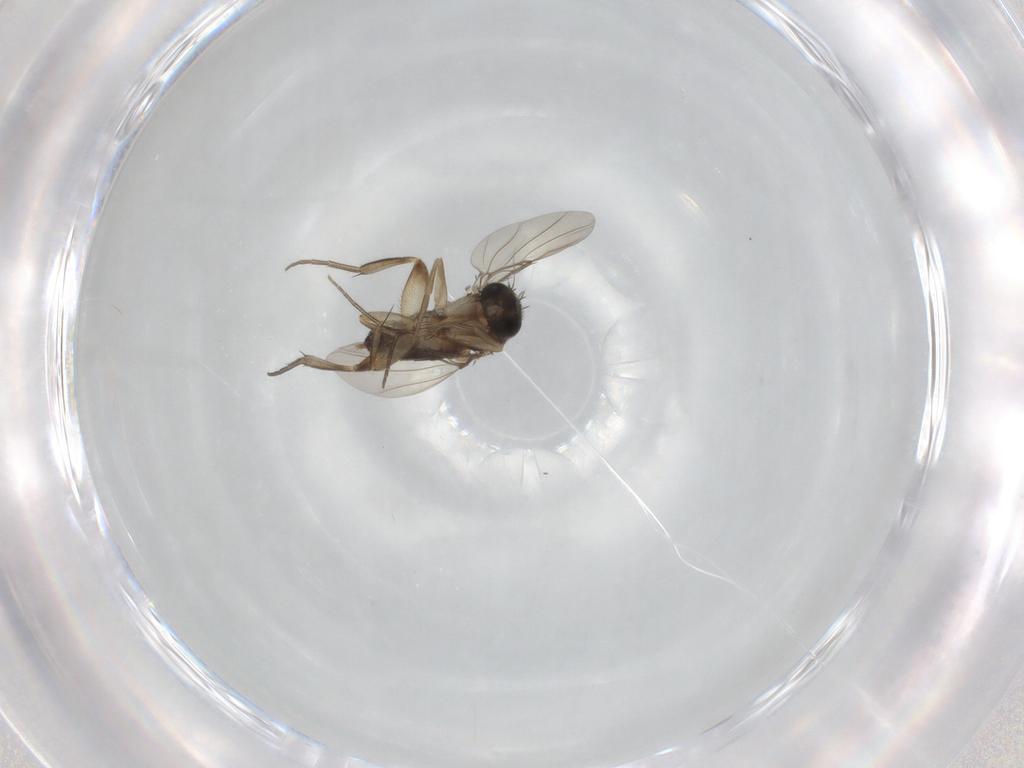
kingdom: Animalia
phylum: Arthropoda
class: Insecta
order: Diptera
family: Phoridae
